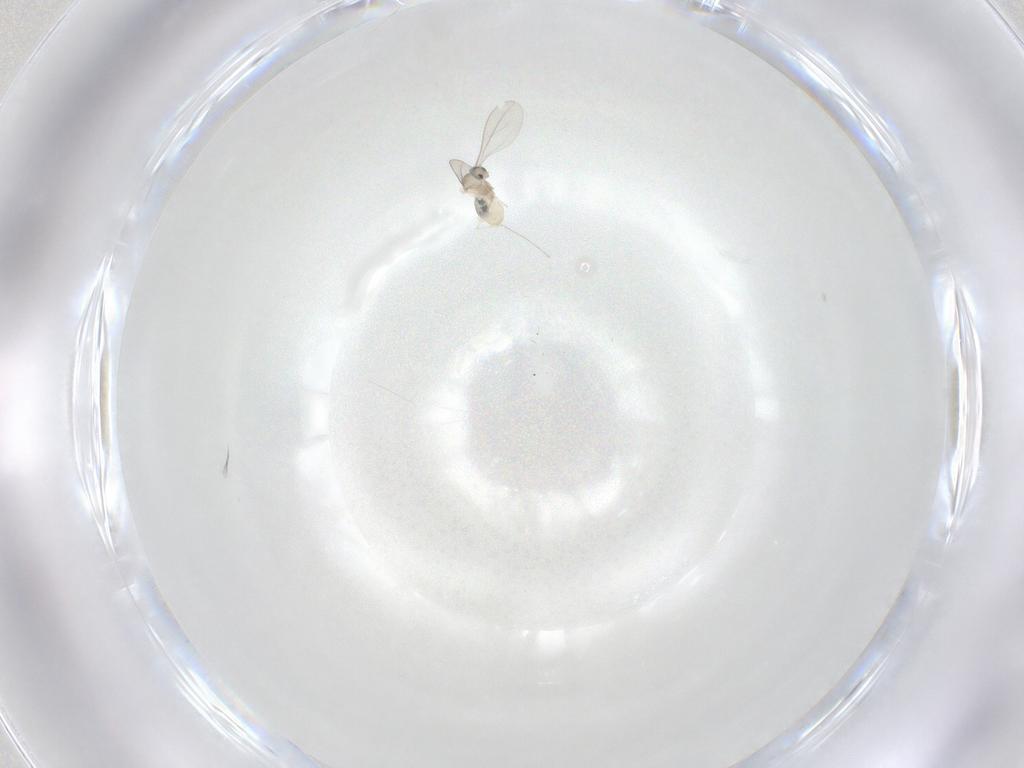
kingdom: Animalia
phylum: Arthropoda
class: Insecta
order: Diptera
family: Cecidomyiidae
